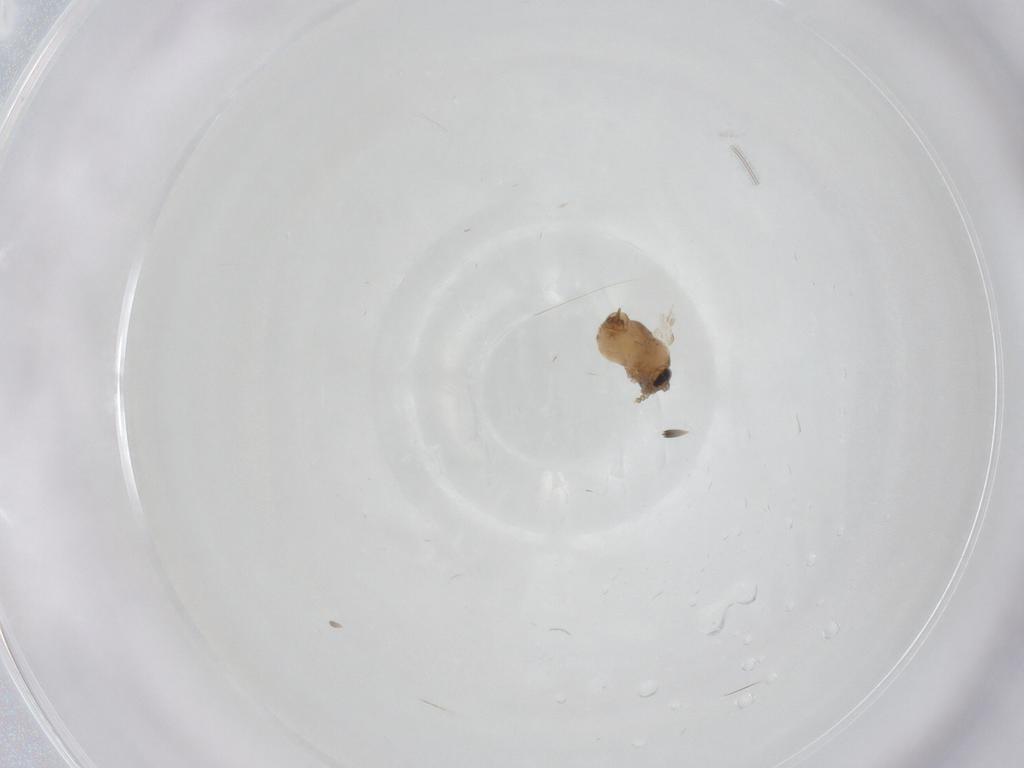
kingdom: Animalia
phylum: Arthropoda
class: Insecta
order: Diptera
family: Psychodidae
